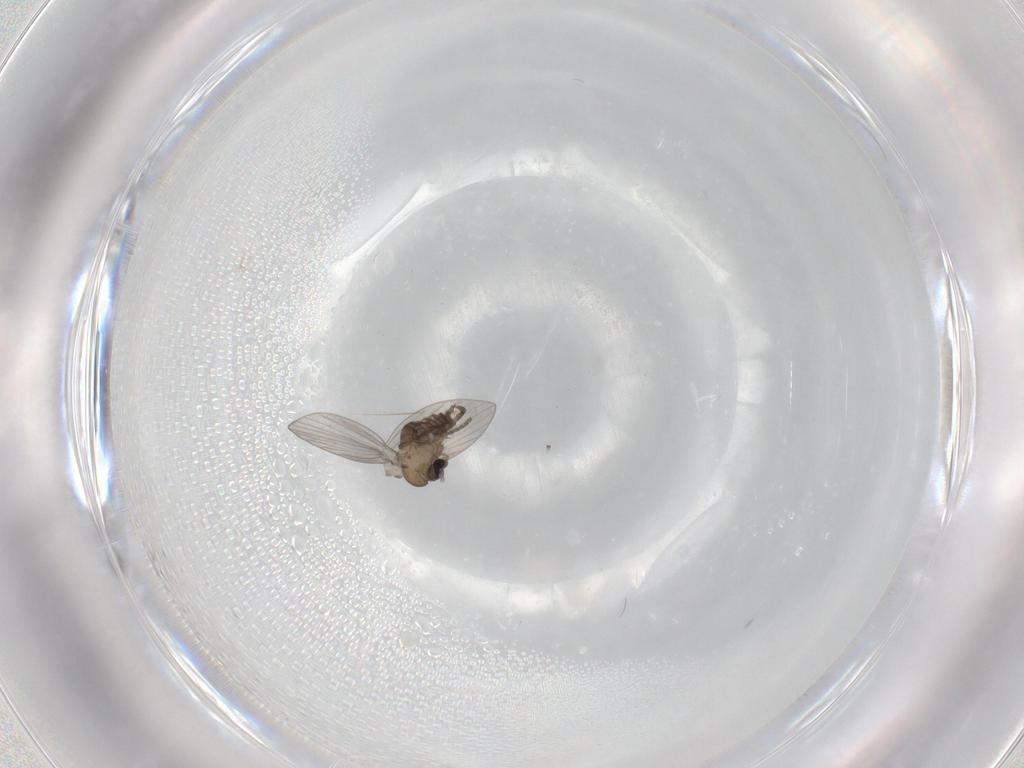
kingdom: Animalia
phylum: Arthropoda
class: Insecta
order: Diptera
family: Psychodidae
